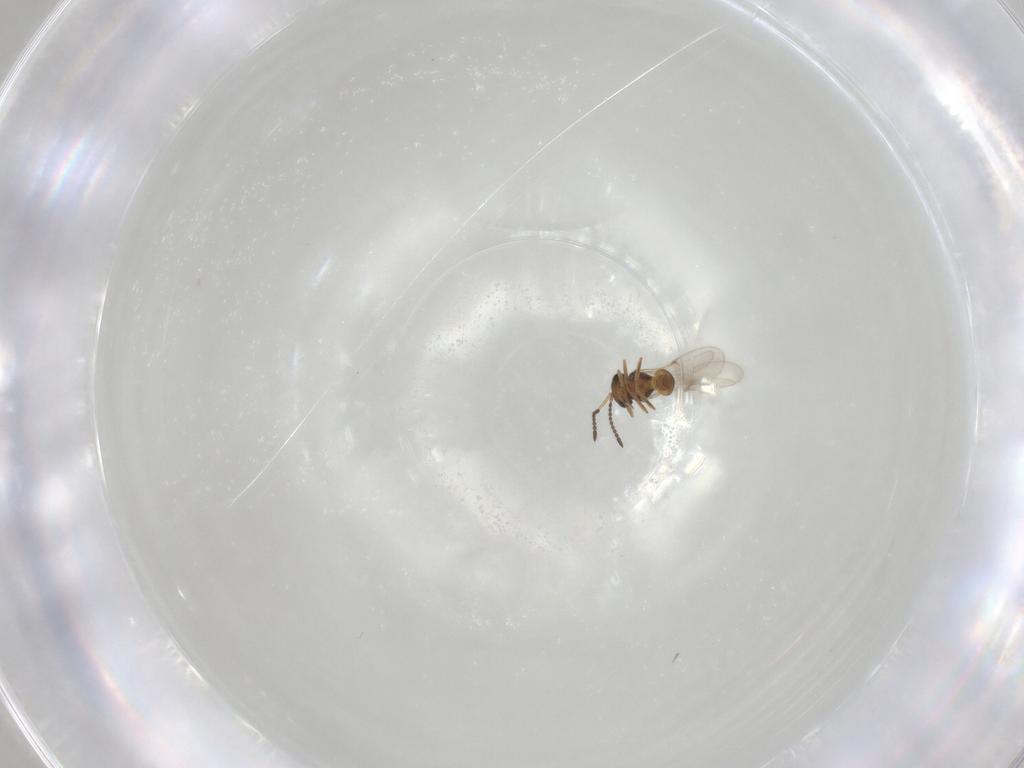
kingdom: Animalia
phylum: Arthropoda
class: Insecta
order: Hymenoptera
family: Scelionidae
